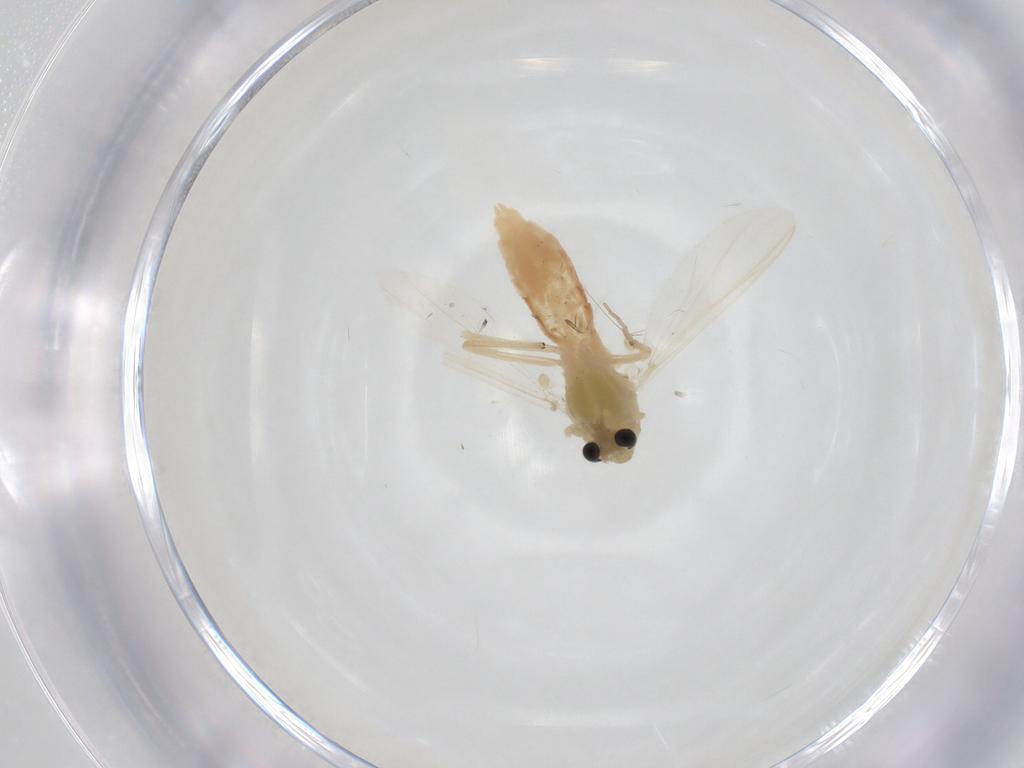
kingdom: Animalia
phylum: Arthropoda
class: Insecta
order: Diptera
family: Chironomidae
